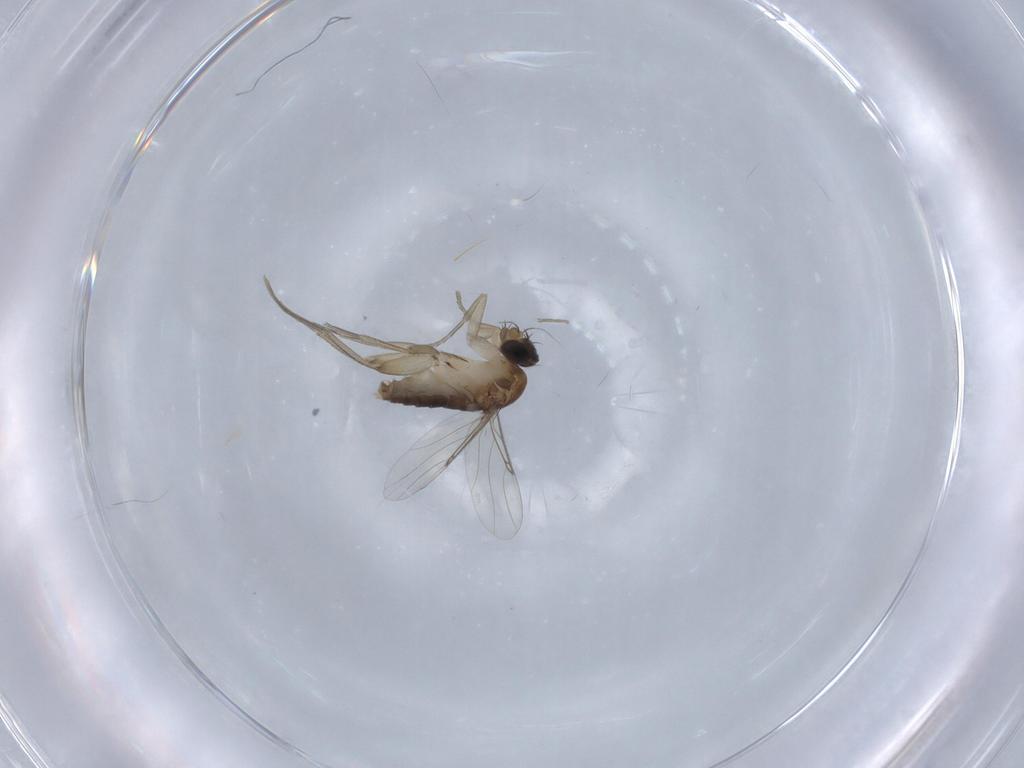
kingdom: Animalia
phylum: Arthropoda
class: Insecta
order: Diptera
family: Phoridae
